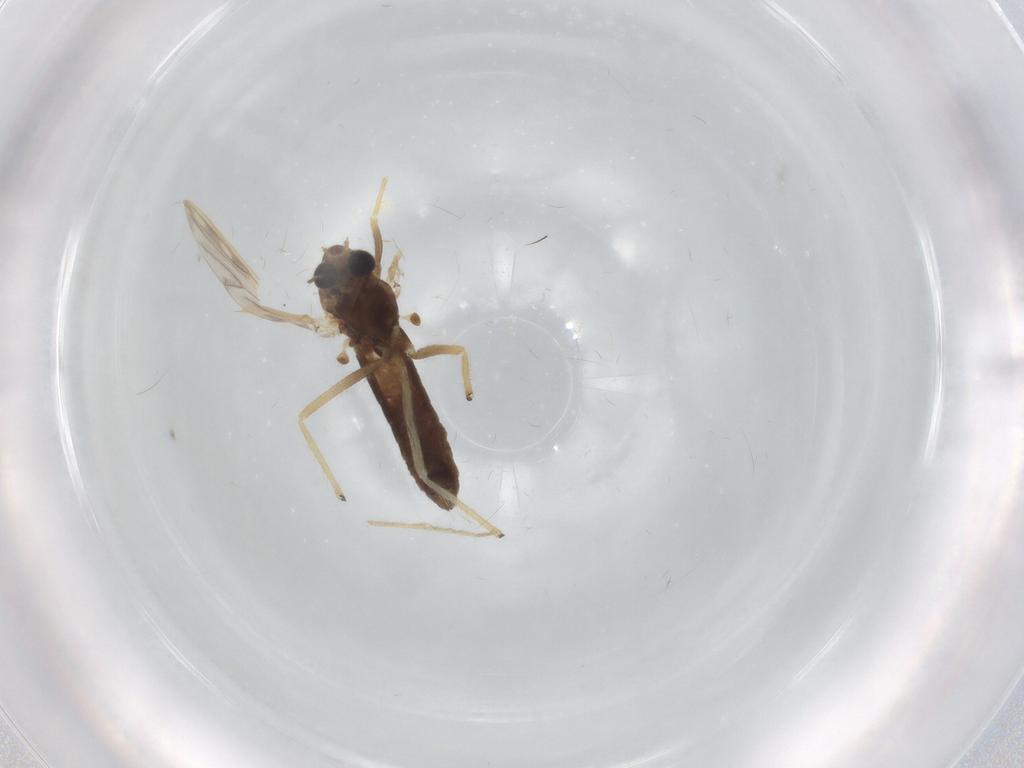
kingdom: Animalia
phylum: Arthropoda
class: Insecta
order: Diptera
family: Chironomidae
